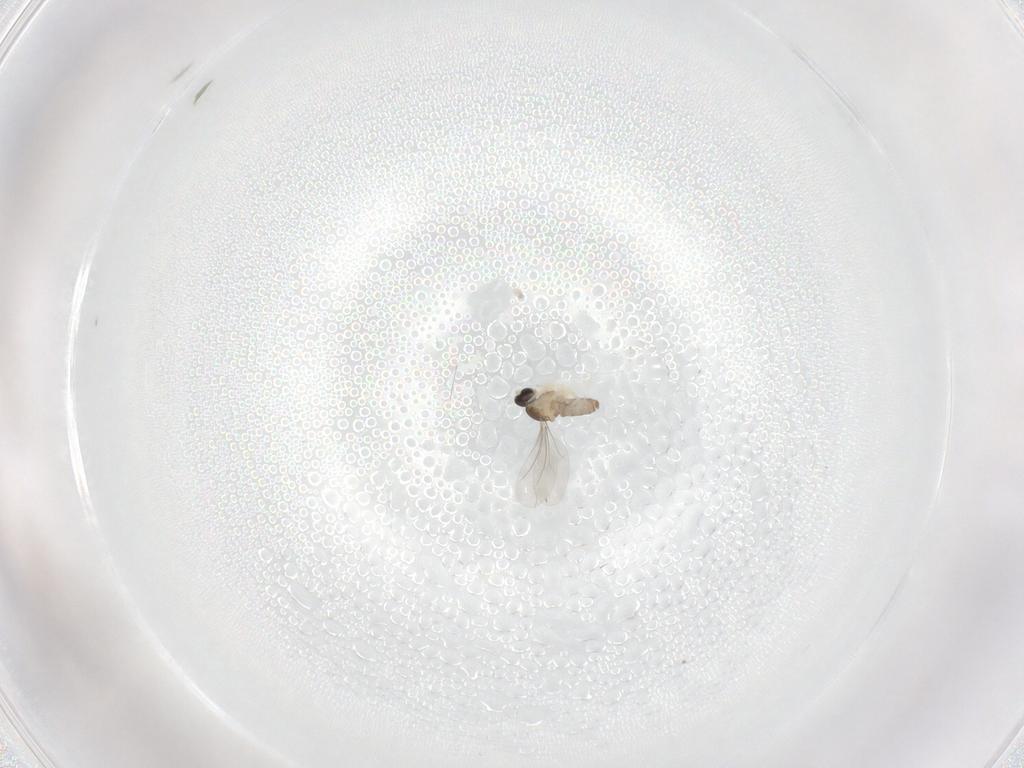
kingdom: Animalia
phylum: Arthropoda
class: Insecta
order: Diptera
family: Cecidomyiidae
